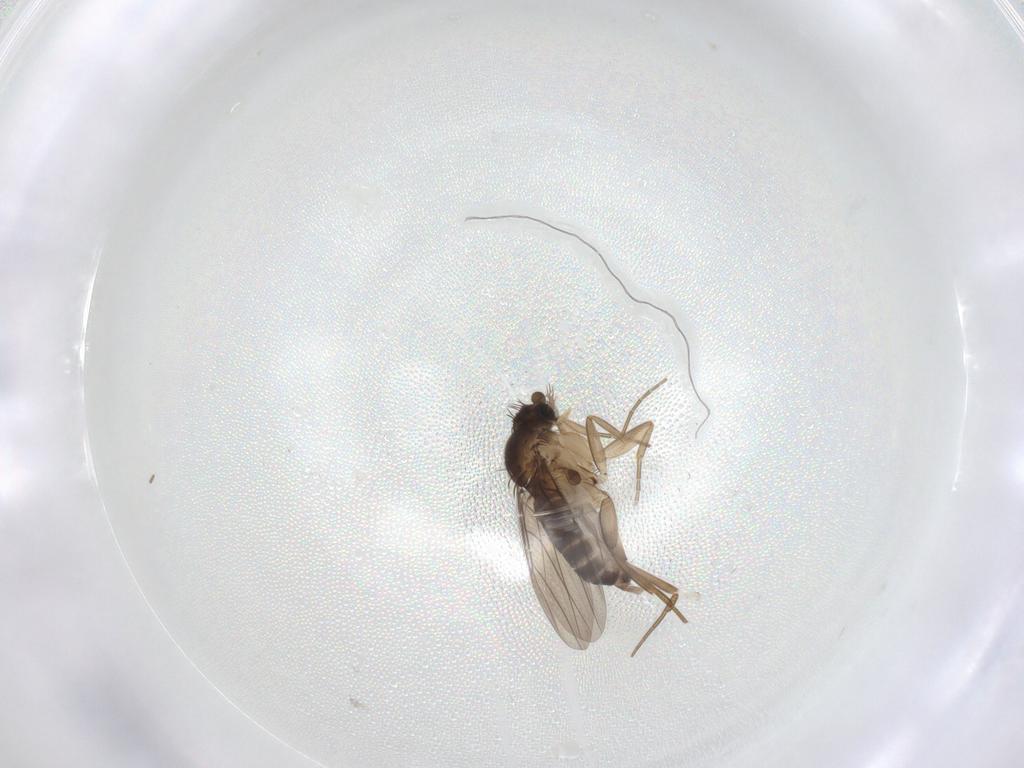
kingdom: Animalia
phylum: Arthropoda
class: Insecta
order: Diptera
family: Phoridae
